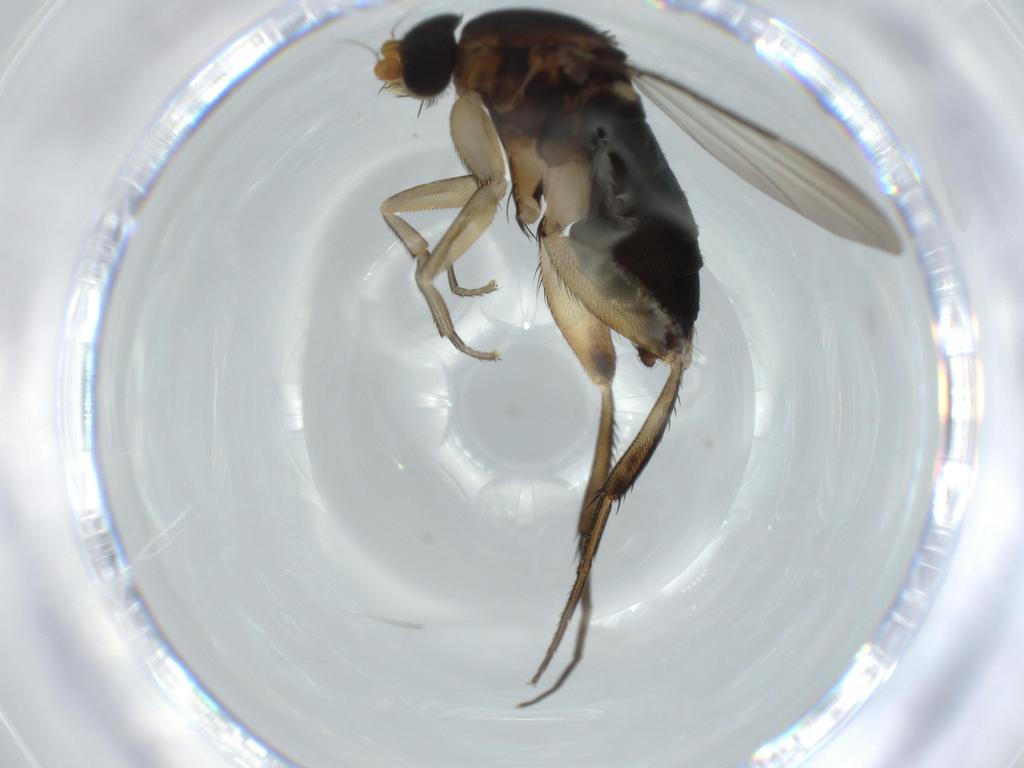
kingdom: Animalia
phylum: Arthropoda
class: Insecta
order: Diptera
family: Phoridae
